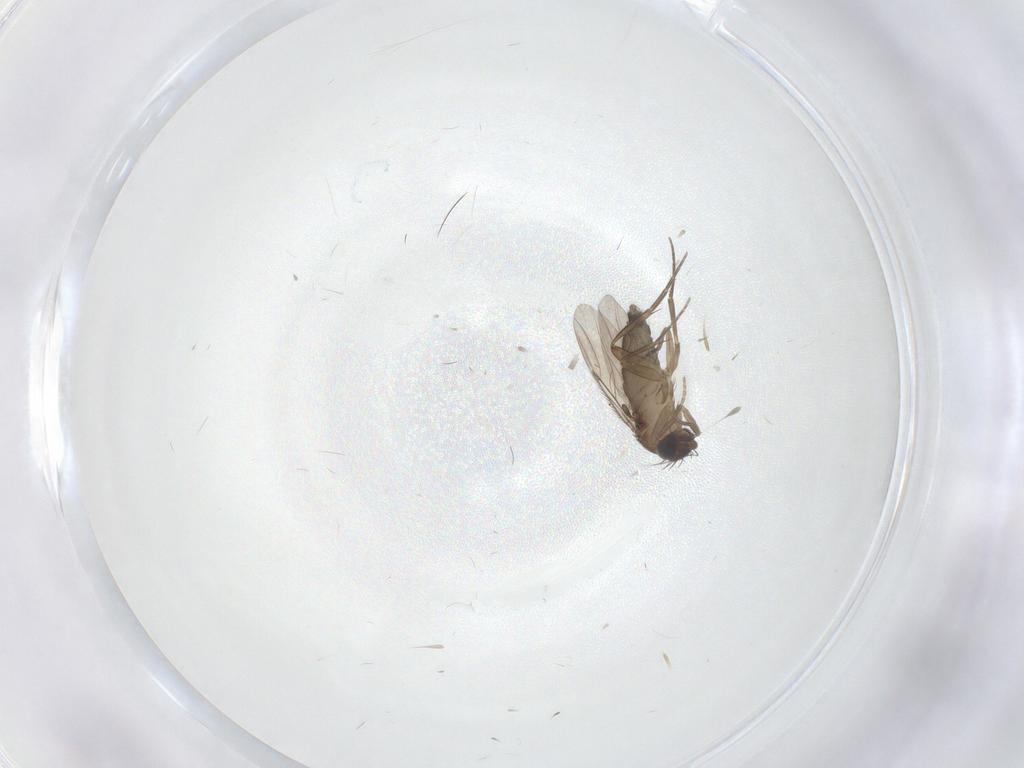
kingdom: Animalia
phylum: Arthropoda
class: Insecta
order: Diptera
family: Phoridae
